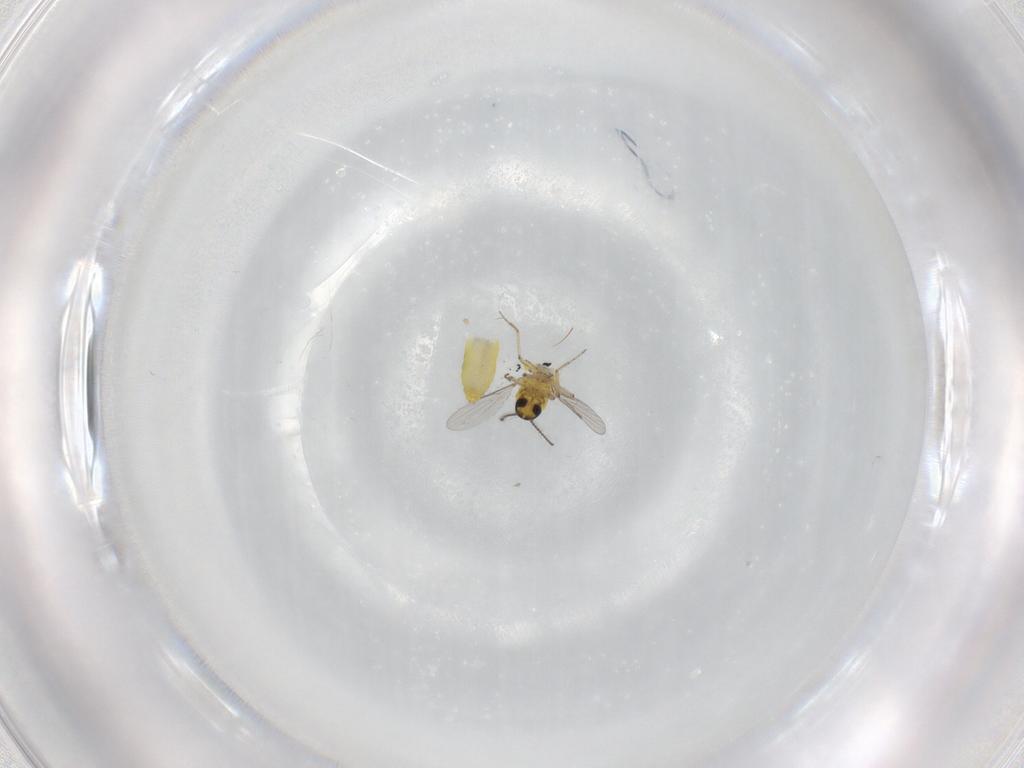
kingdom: Animalia
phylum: Arthropoda
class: Insecta
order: Diptera
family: Ceratopogonidae
